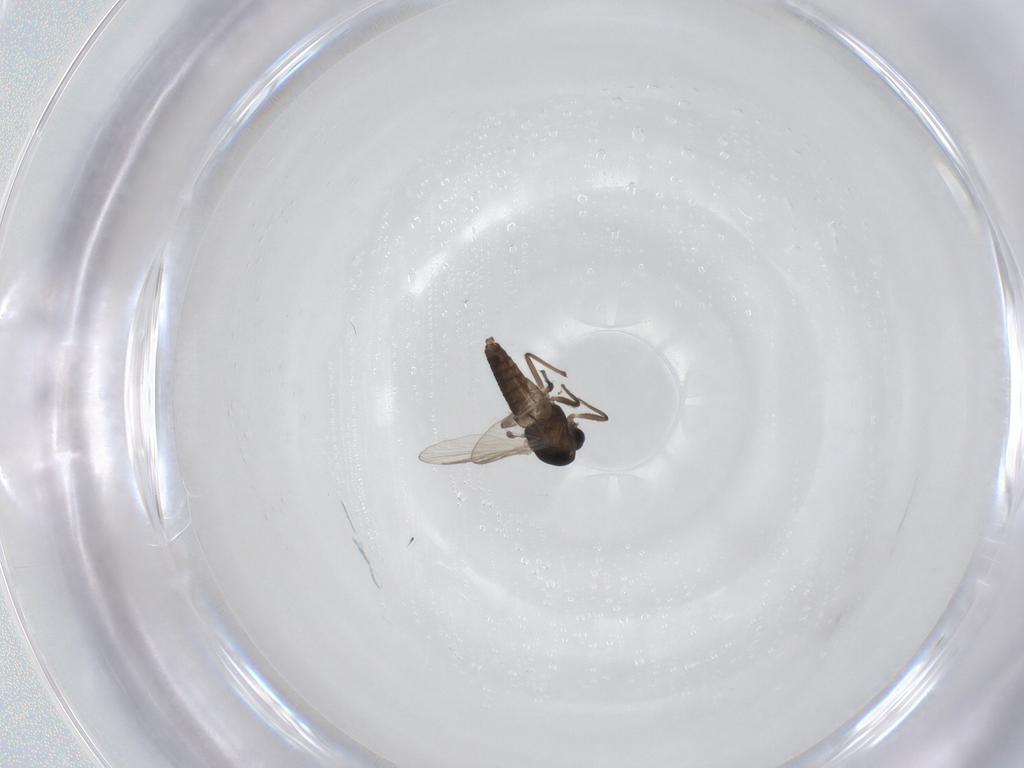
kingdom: Animalia
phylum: Arthropoda
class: Insecta
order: Diptera
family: Chironomidae
